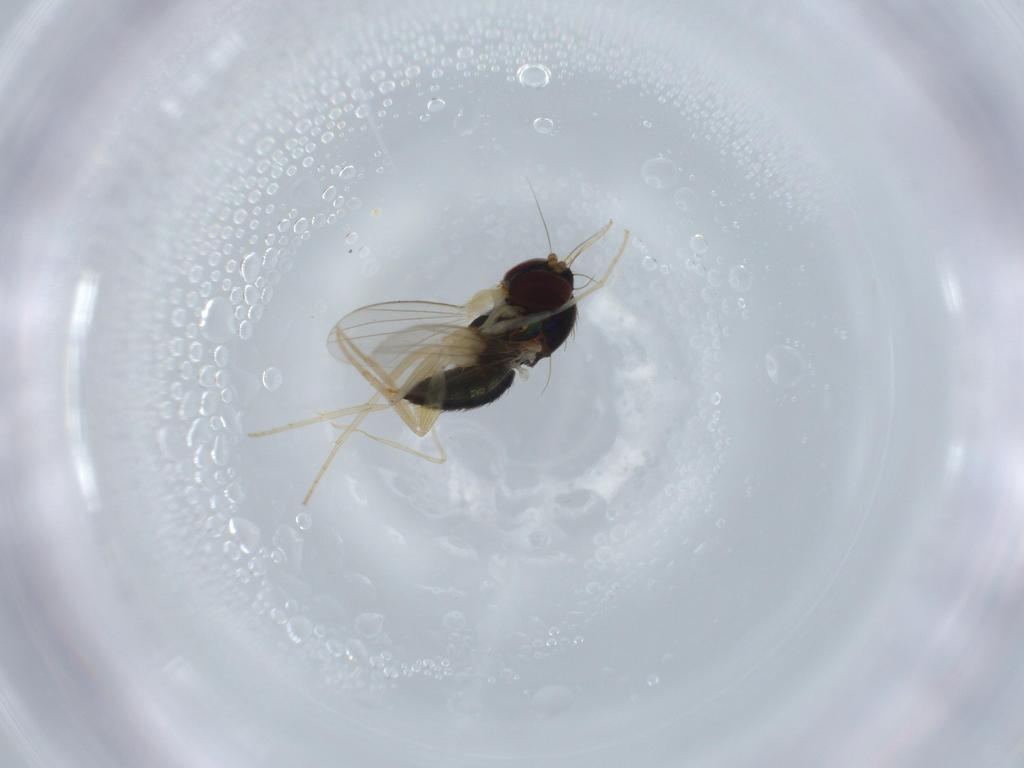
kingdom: Animalia
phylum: Arthropoda
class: Insecta
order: Diptera
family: Dolichopodidae
